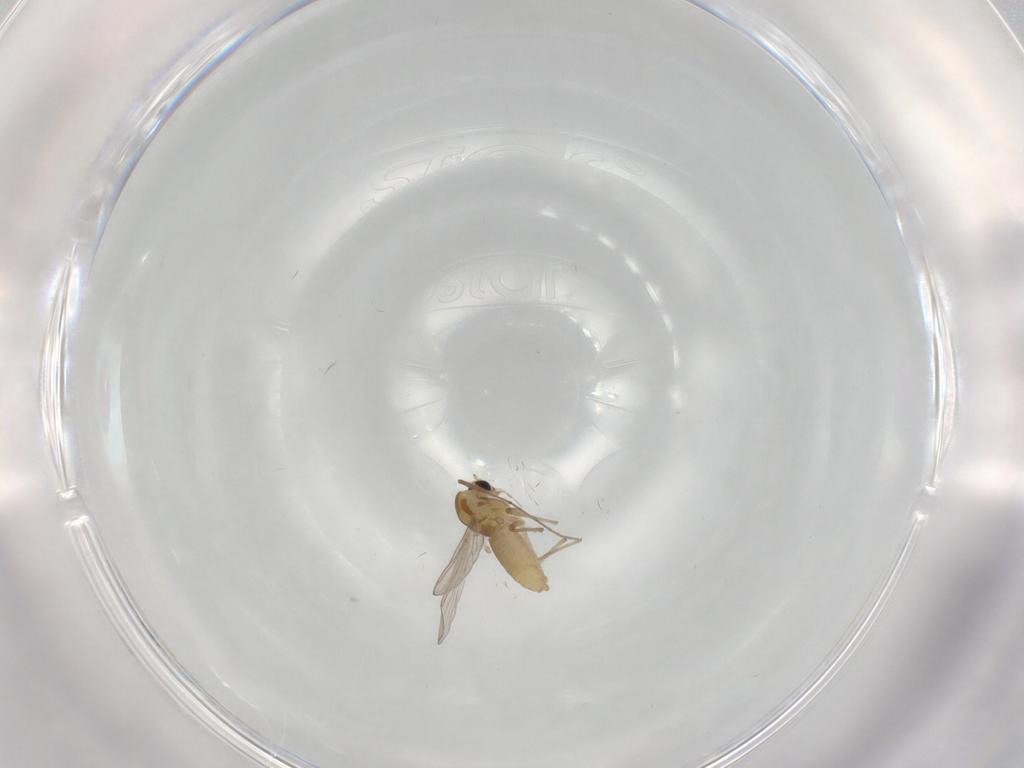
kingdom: Animalia
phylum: Arthropoda
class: Insecta
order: Diptera
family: Chironomidae
